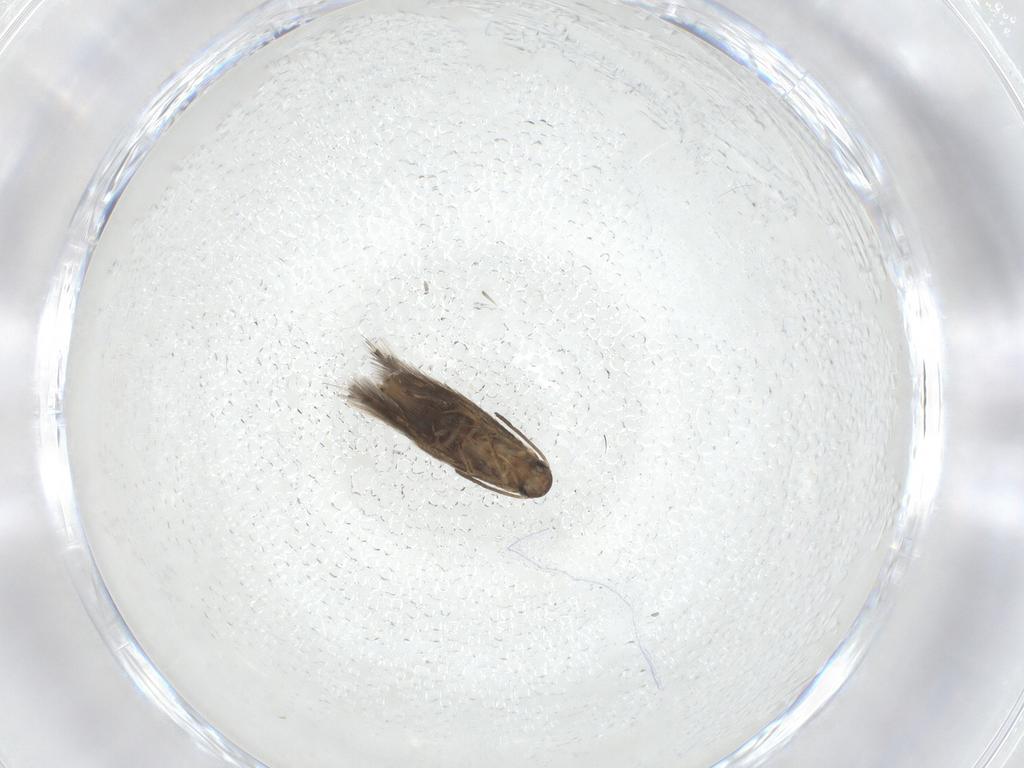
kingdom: Animalia
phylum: Arthropoda
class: Insecta
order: Lepidoptera
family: Heliozelidae
